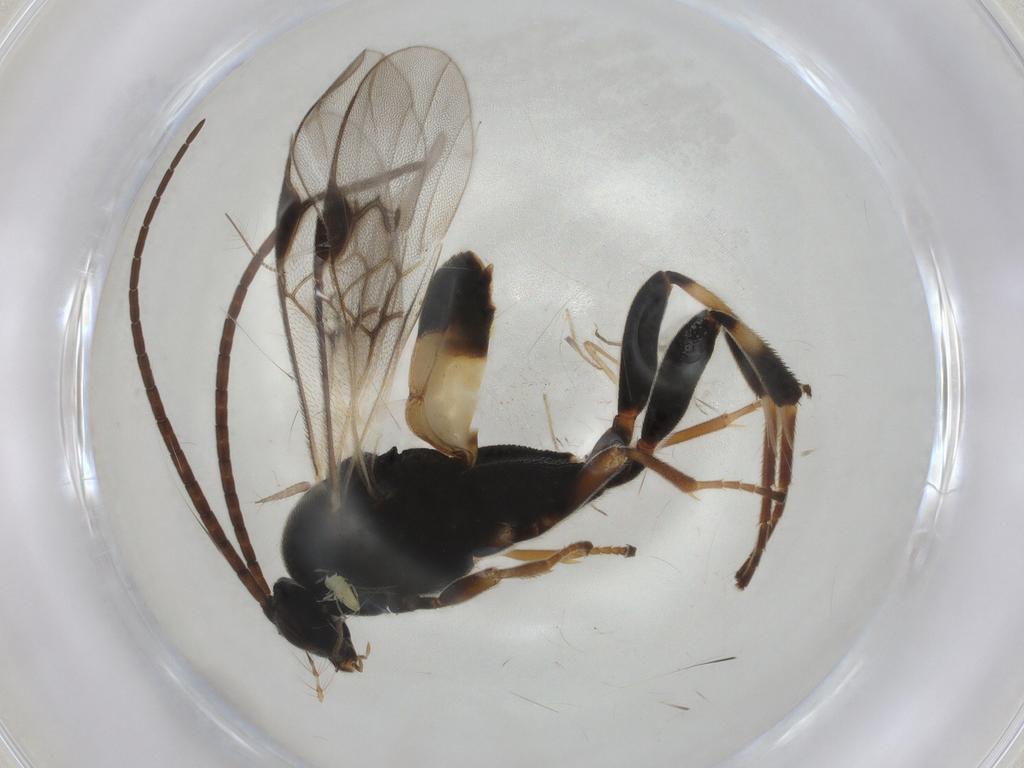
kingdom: Animalia
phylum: Arthropoda
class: Insecta
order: Hymenoptera
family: Braconidae
